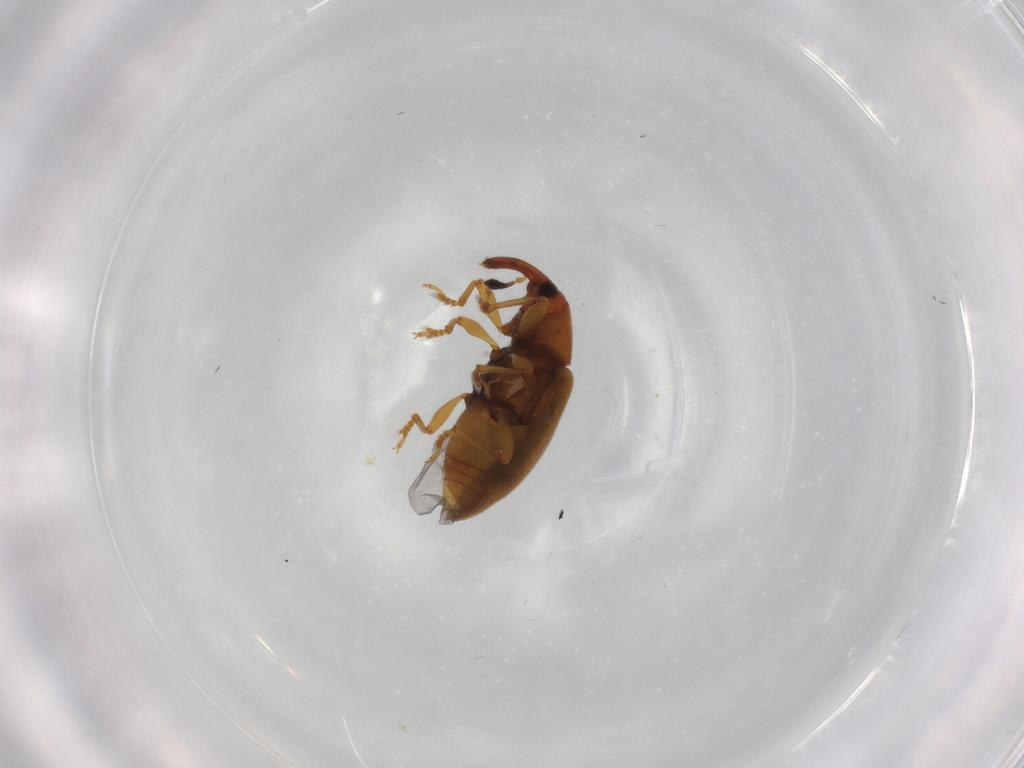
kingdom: Animalia
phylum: Arthropoda
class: Insecta
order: Coleoptera
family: Curculionidae
